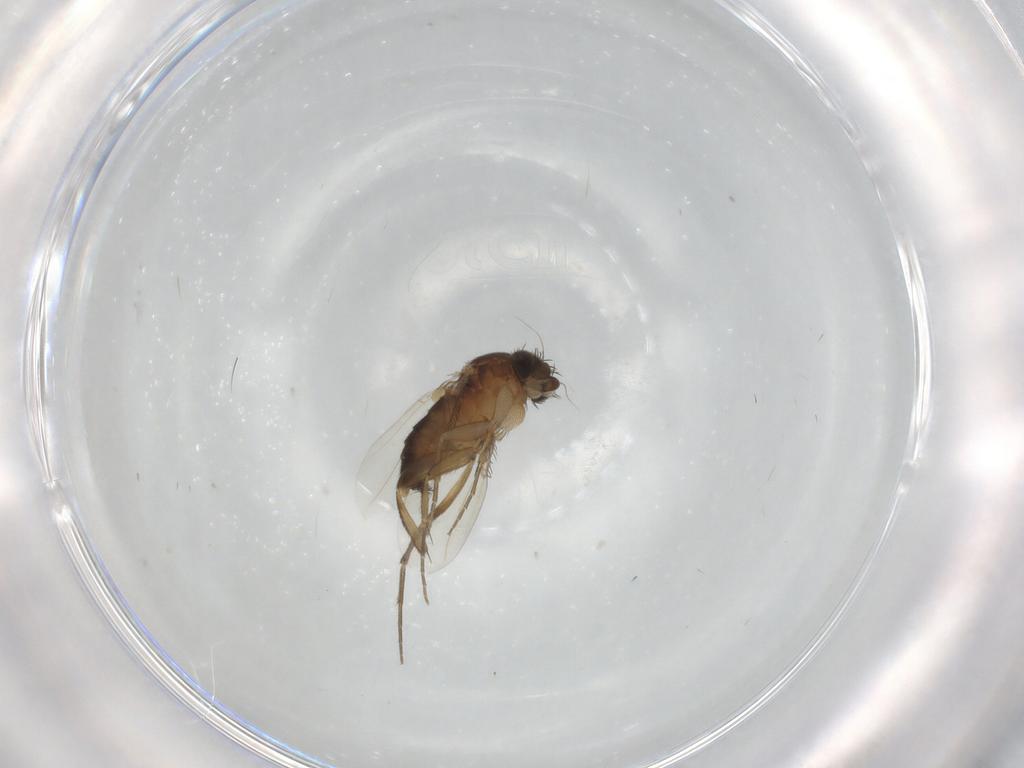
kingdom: Animalia
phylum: Arthropoda
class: Insecta
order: Diptera
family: Phoridae
